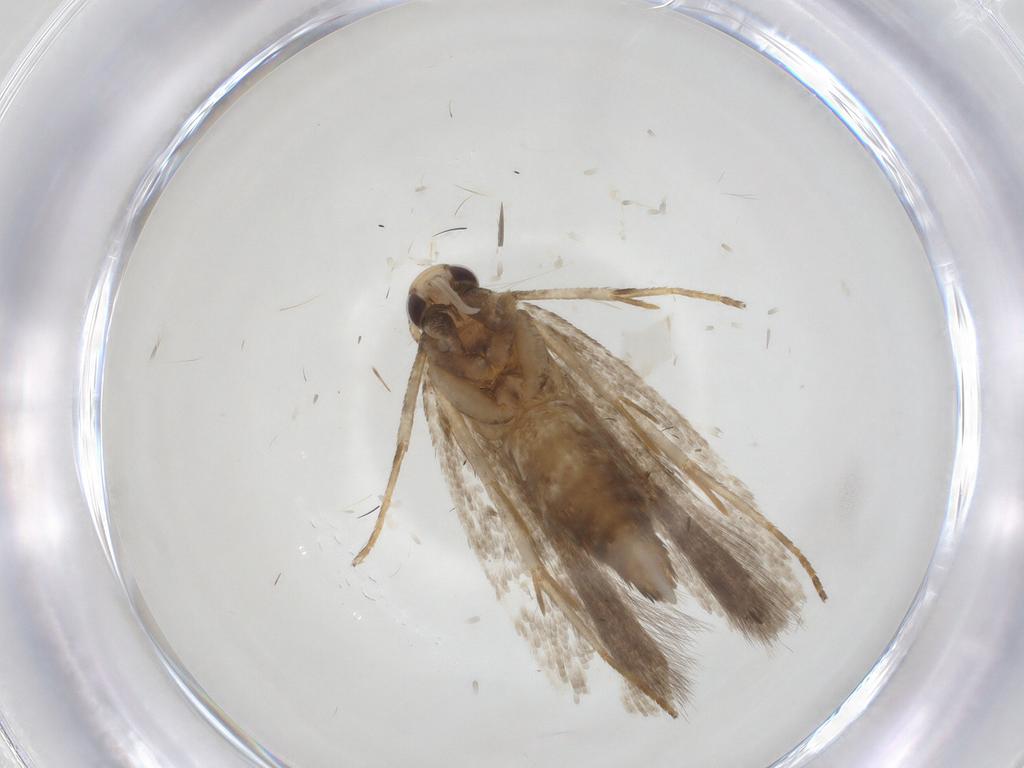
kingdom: Animalia
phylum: Arthropoda
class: Insecta
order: Lepidoptera
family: Gelechiidae
